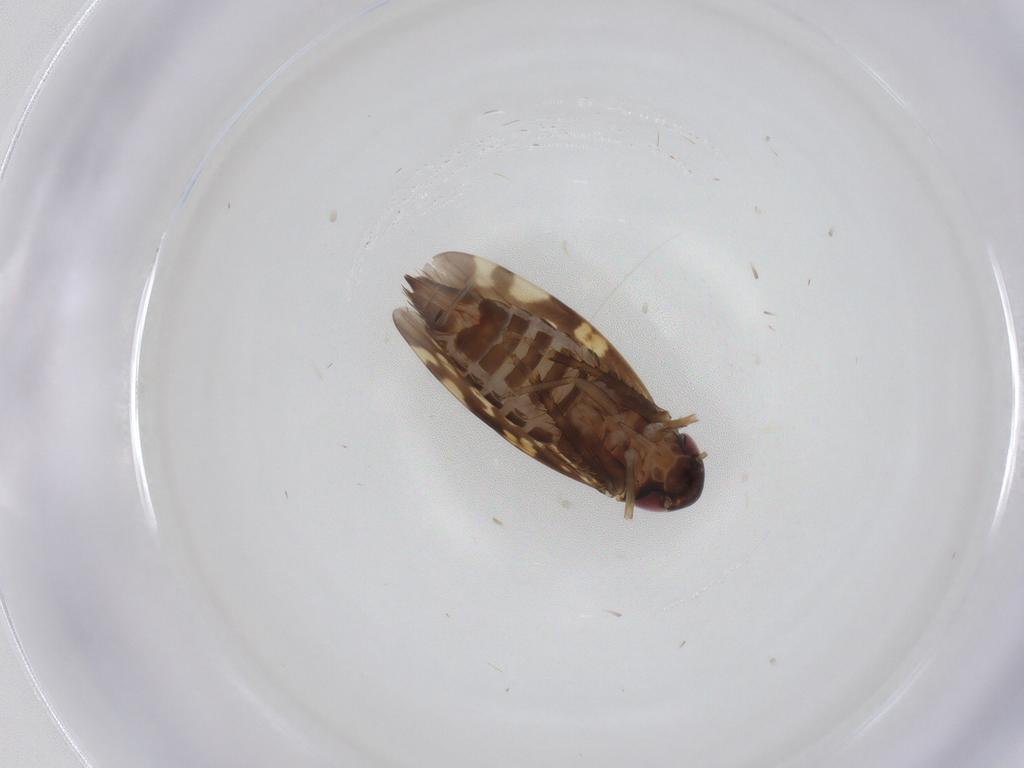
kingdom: Animalia
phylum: Arthropoda
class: Insecta
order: Hemiptera
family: Cicadellidae
